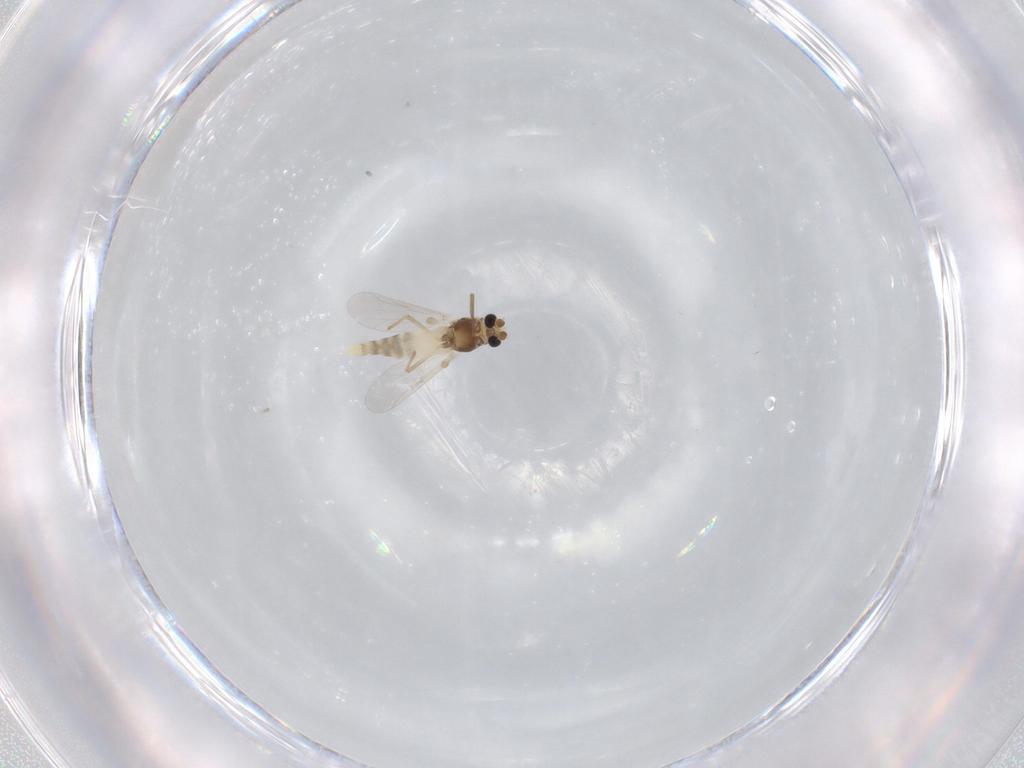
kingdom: Animalia
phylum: Arthropoda
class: Insecta
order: Diptera
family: Chironomidae
